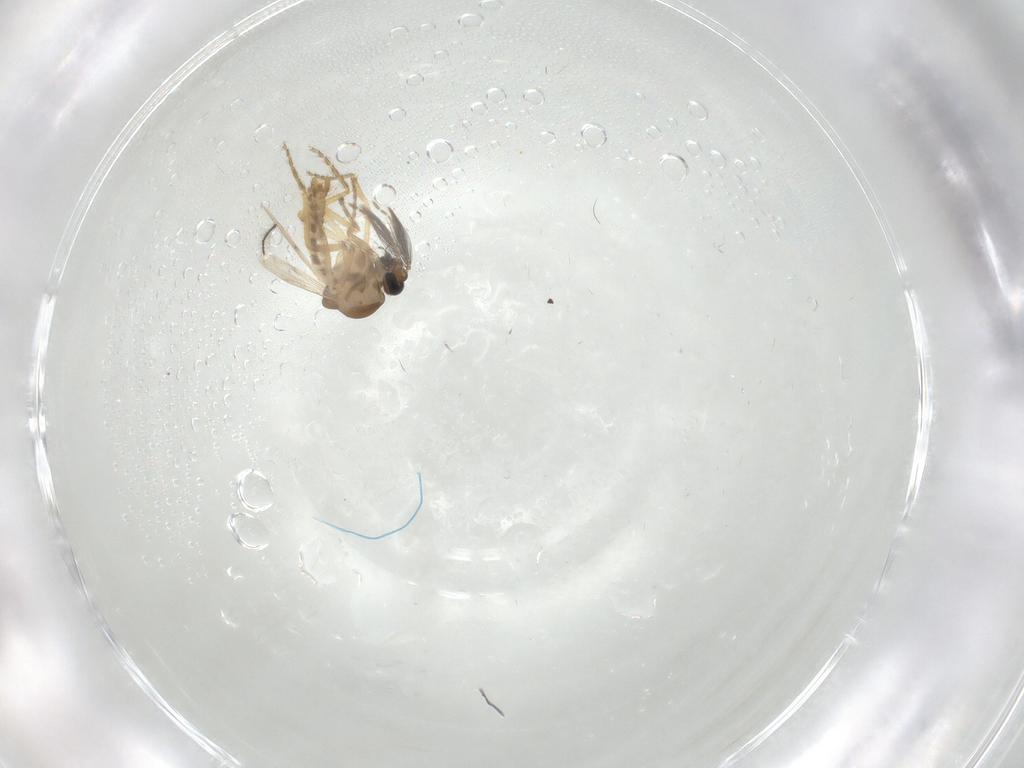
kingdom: Animalia
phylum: Arthropoda
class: Insecta
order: Diptera
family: Ceratopogonidae
